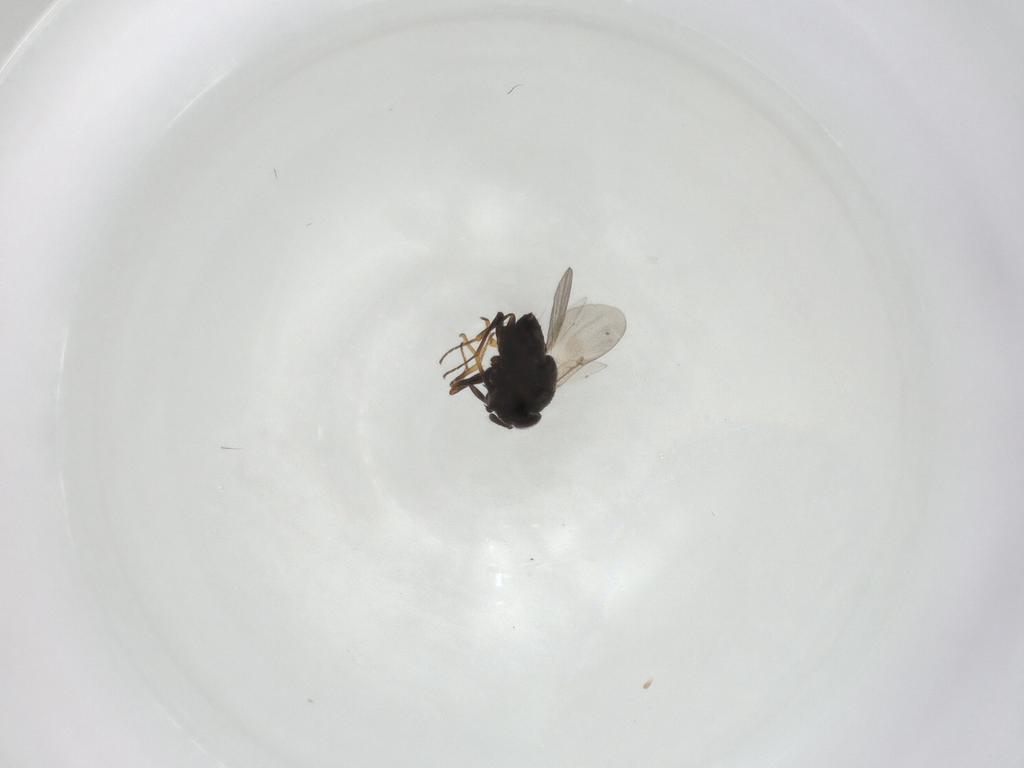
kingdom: Animalia
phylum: Arthropoda
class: Insecta
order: Hymenoptera
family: Encyrtidae
